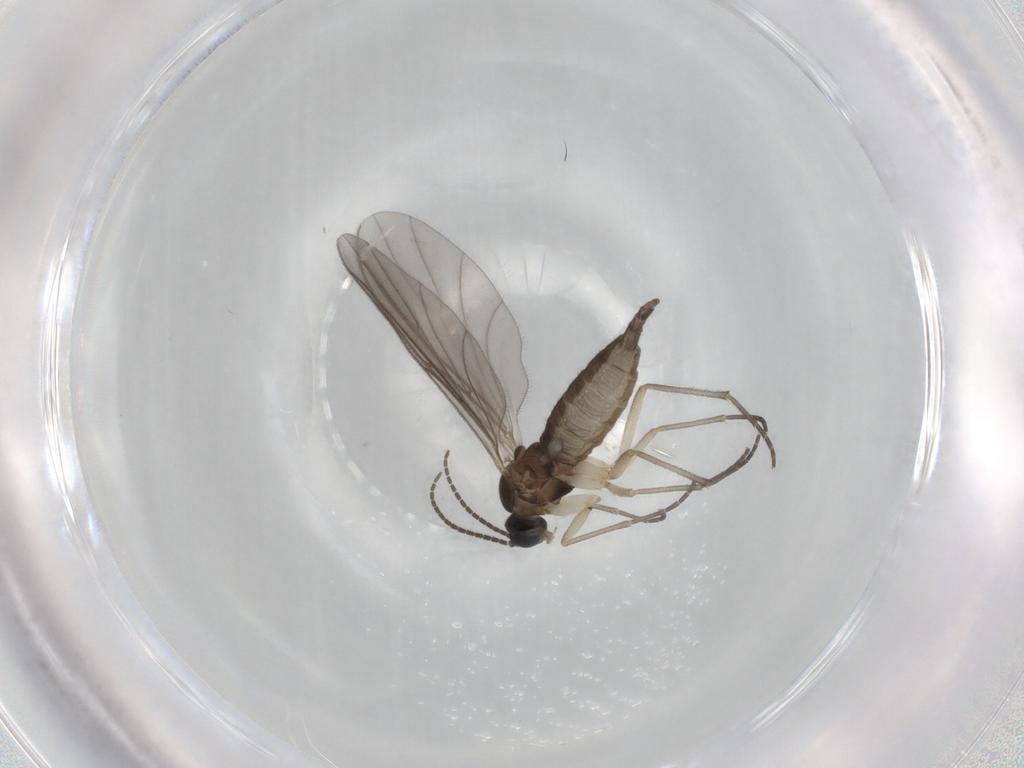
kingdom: Animalia
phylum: Arthropoda
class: Insecta
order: Diptera
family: Sciaridae
